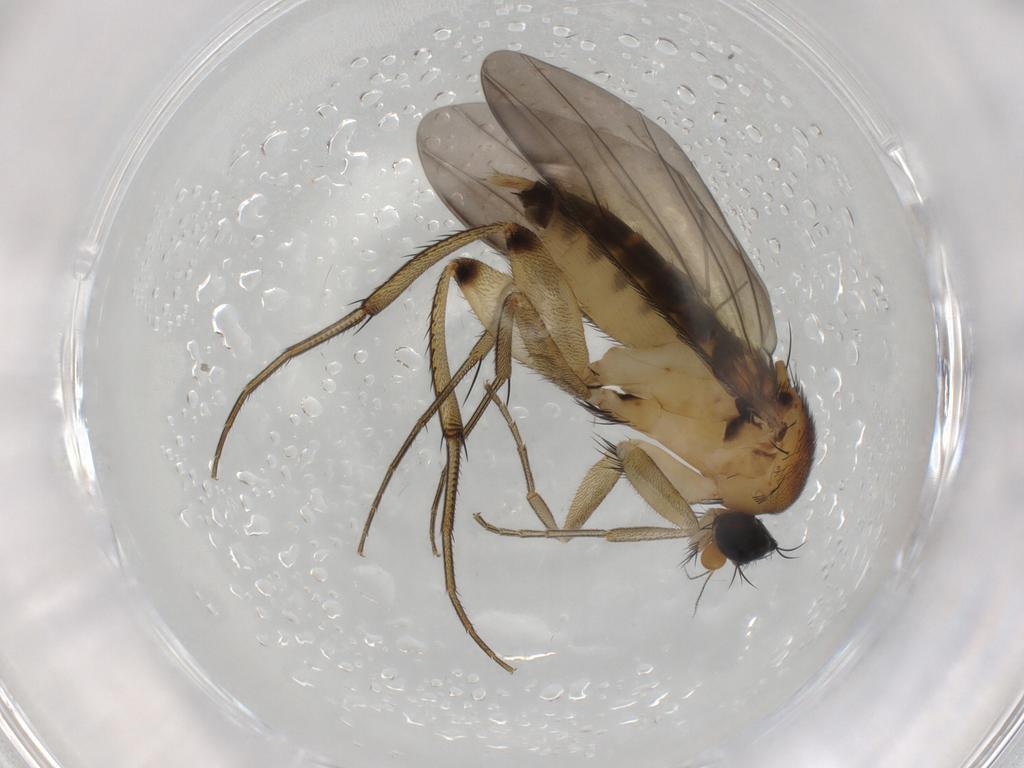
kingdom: Animalia
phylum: Arthropoda
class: Insecta
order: Diptera
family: Phoridae
